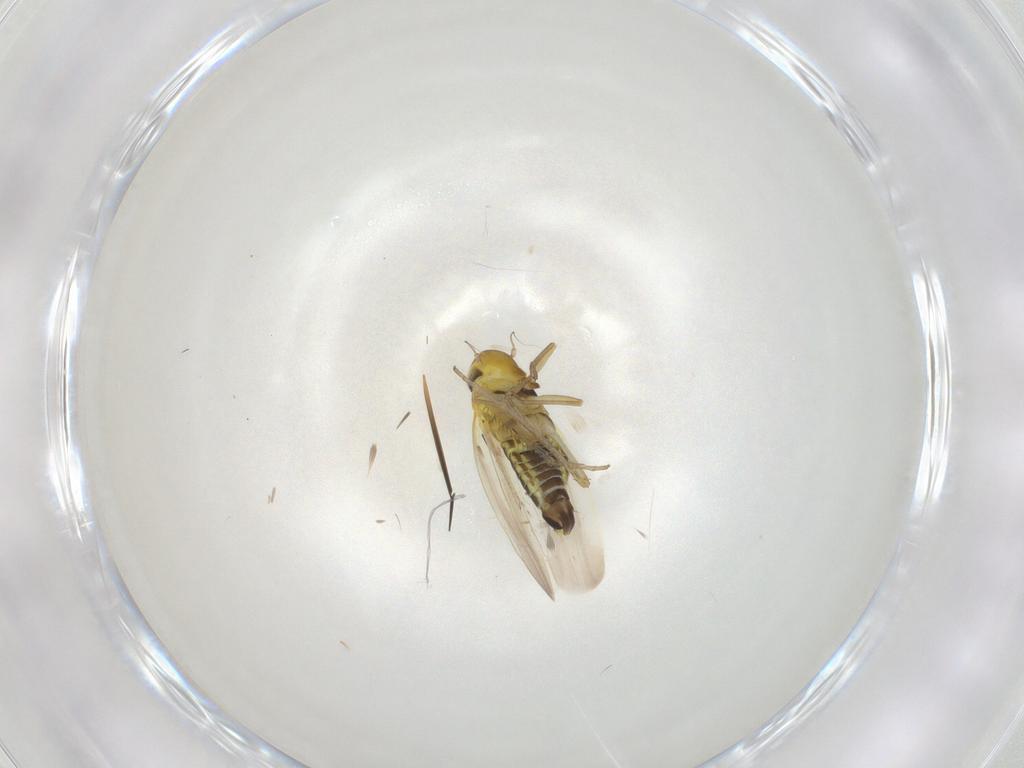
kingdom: Animalia
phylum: Arthropoda
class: Insecta
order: Hemiptera
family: Cicadellidae
